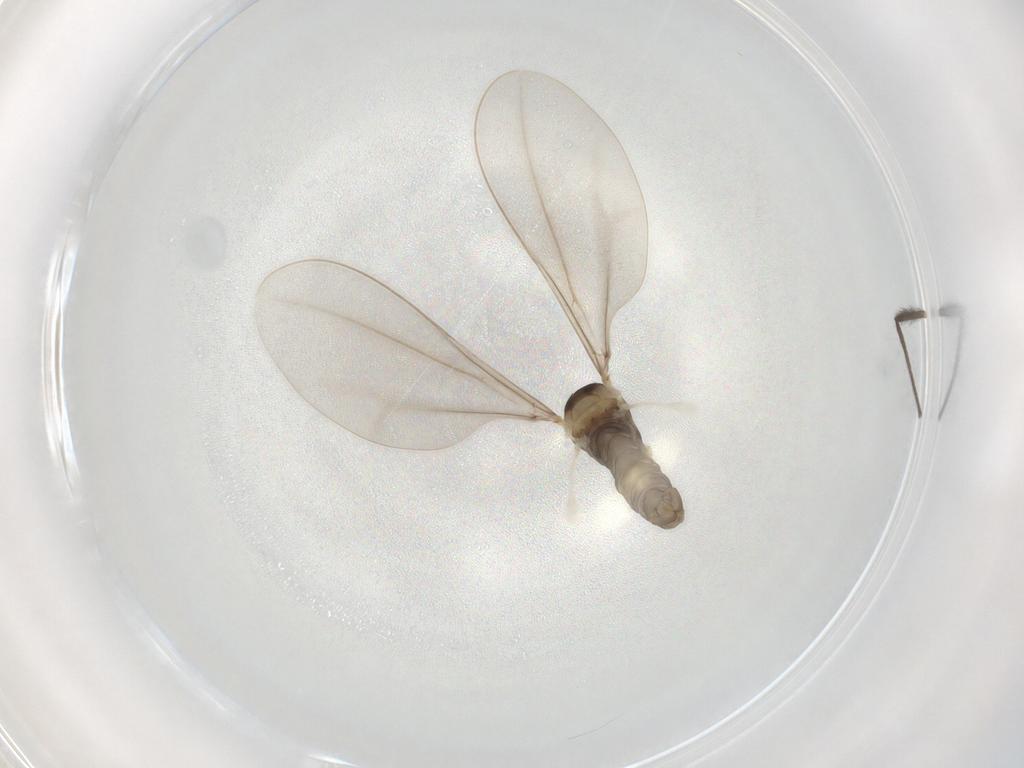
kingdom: Animalia
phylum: Arthropoda
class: Insecta
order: Diptera
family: Cecidomyiidae
